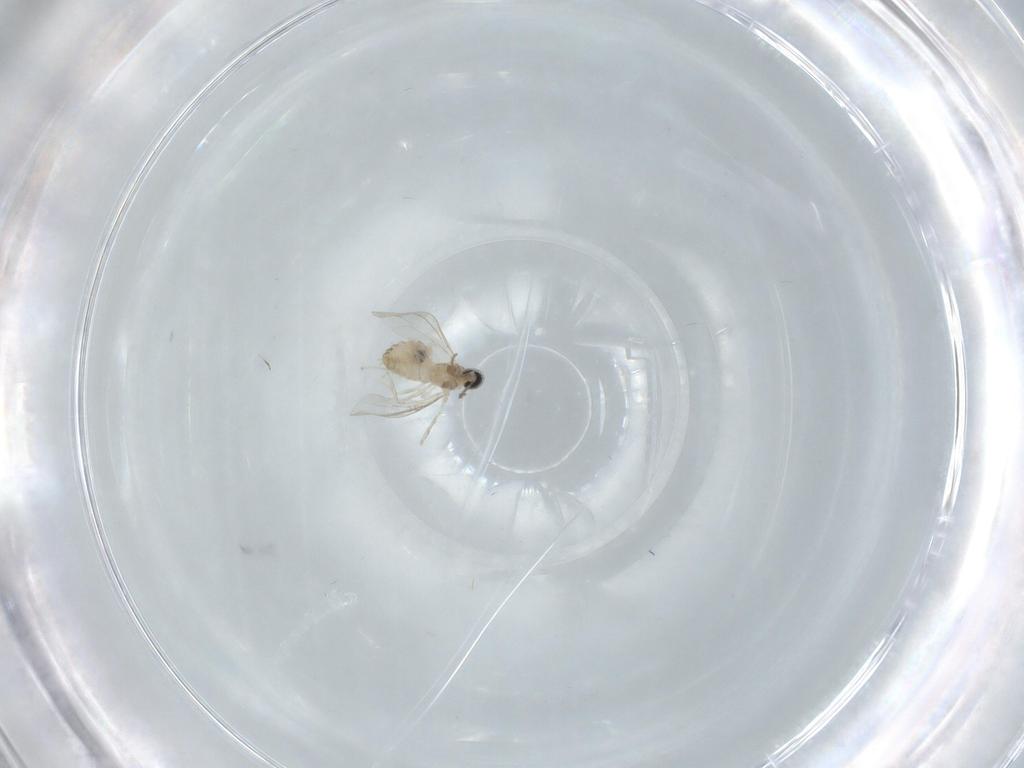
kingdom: Animalia
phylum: Arthropoda
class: Insecta
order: Diptera
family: Cecidomyiidae
